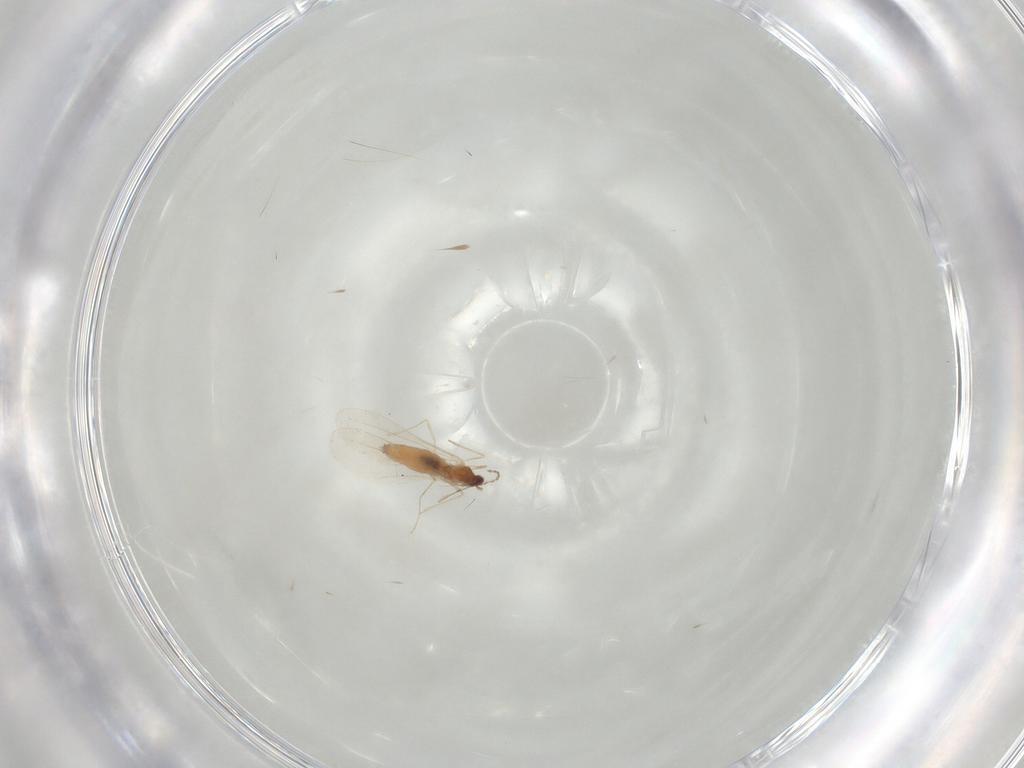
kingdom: Animalia
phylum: Arthropoda
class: Insecta
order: Diptera
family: Cecidomyiidae
